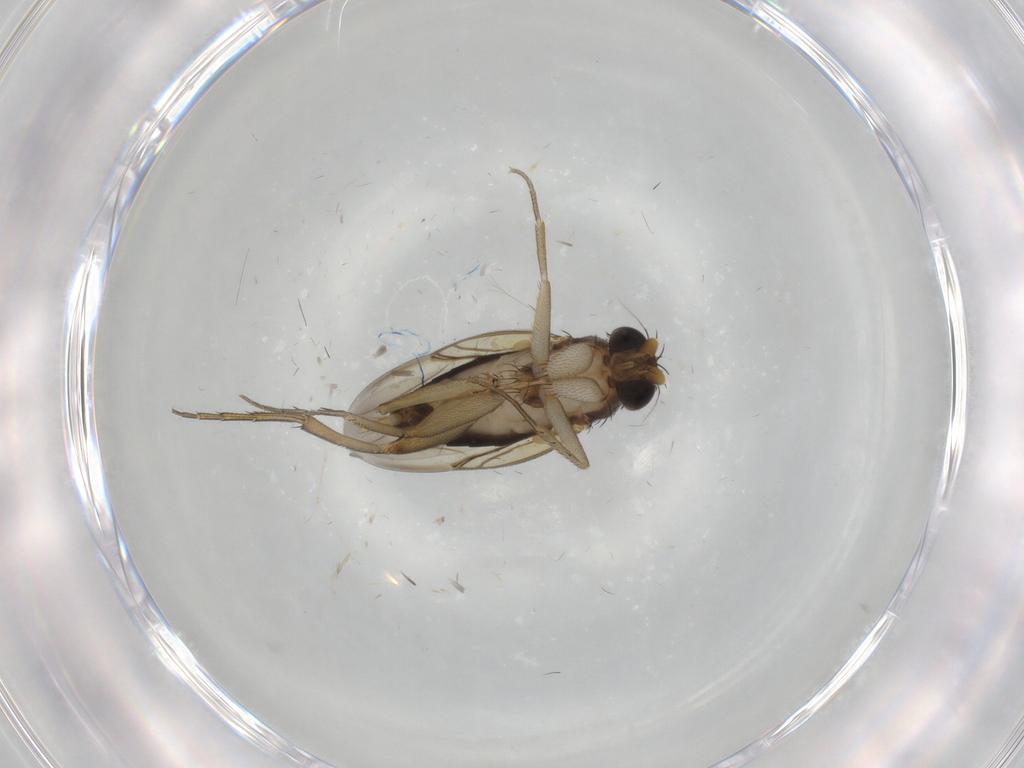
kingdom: Animalia
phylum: Arthropoda
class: Insecta
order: Diptera
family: Phoridae
